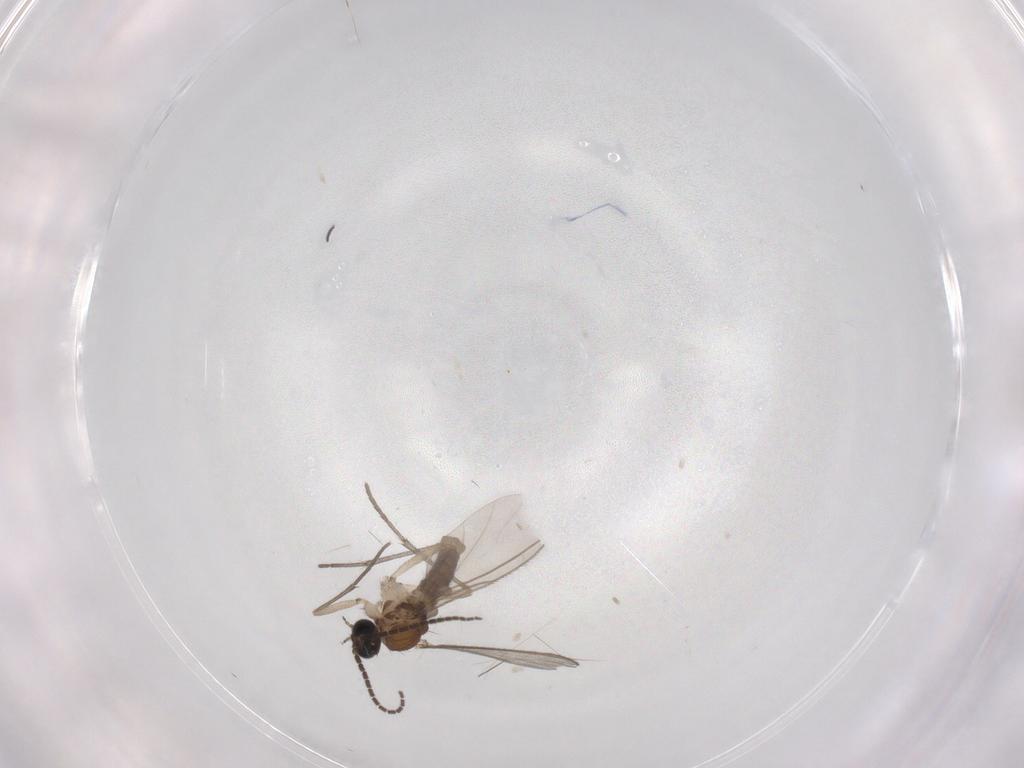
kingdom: Animalia
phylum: Arthropoda
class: Insecta
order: Diptera
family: Sciaridae
